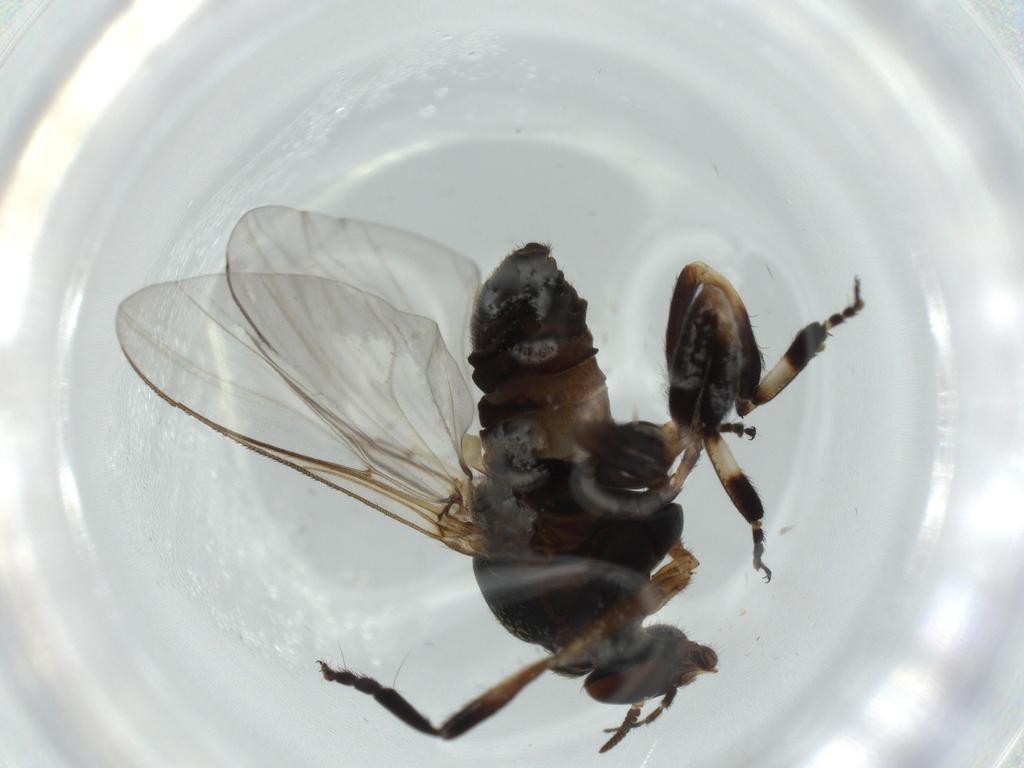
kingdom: Animalia
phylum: Arthropoda
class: Insecta
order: Diptera
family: Cecidomyiidae
